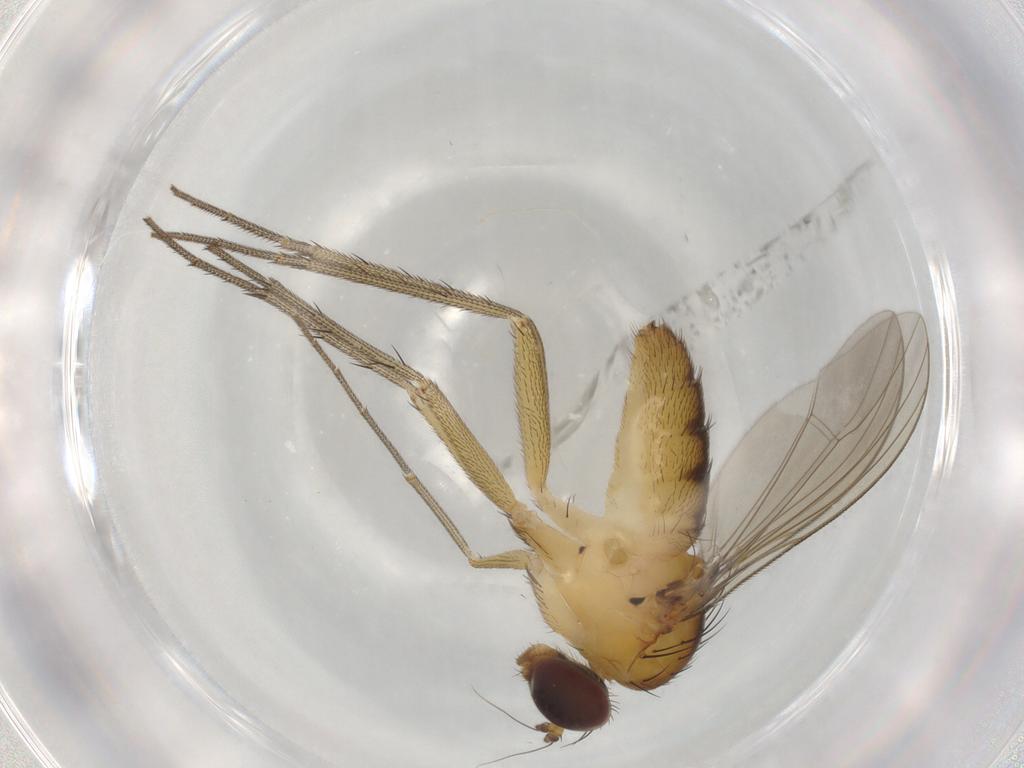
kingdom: Animalia
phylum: Arthropoda
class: Insecta
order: Diptera
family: Dolichopodidae
